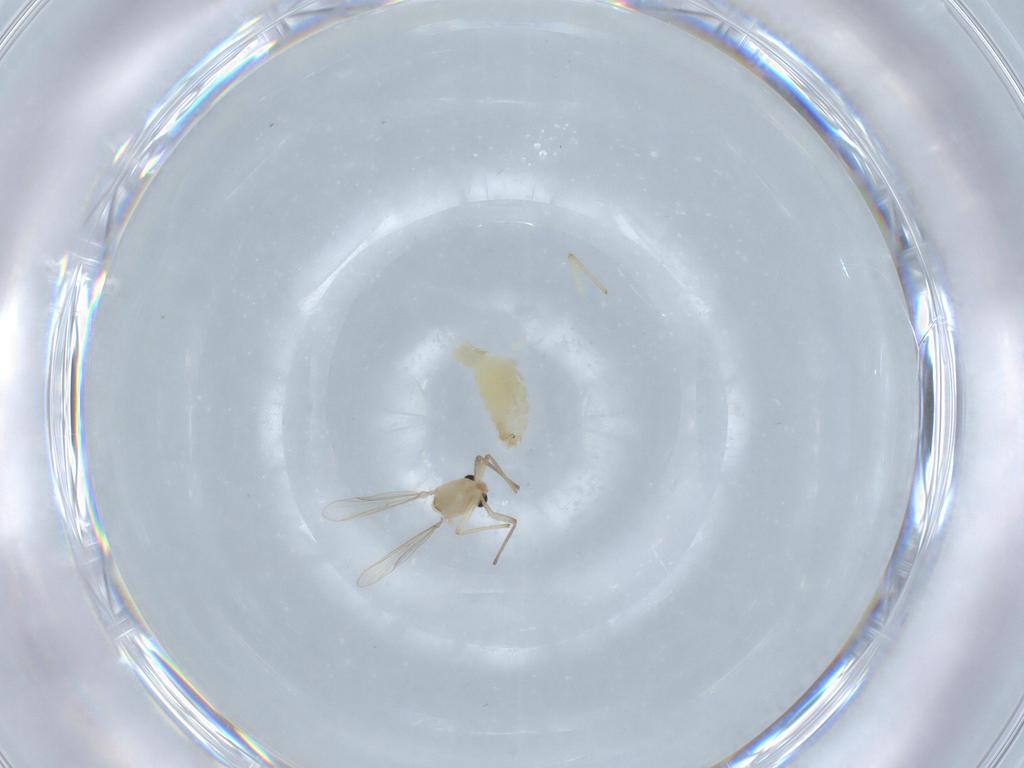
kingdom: Animalia
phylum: Arthropoda
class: Insecta
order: Diptera
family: Chironomidae
